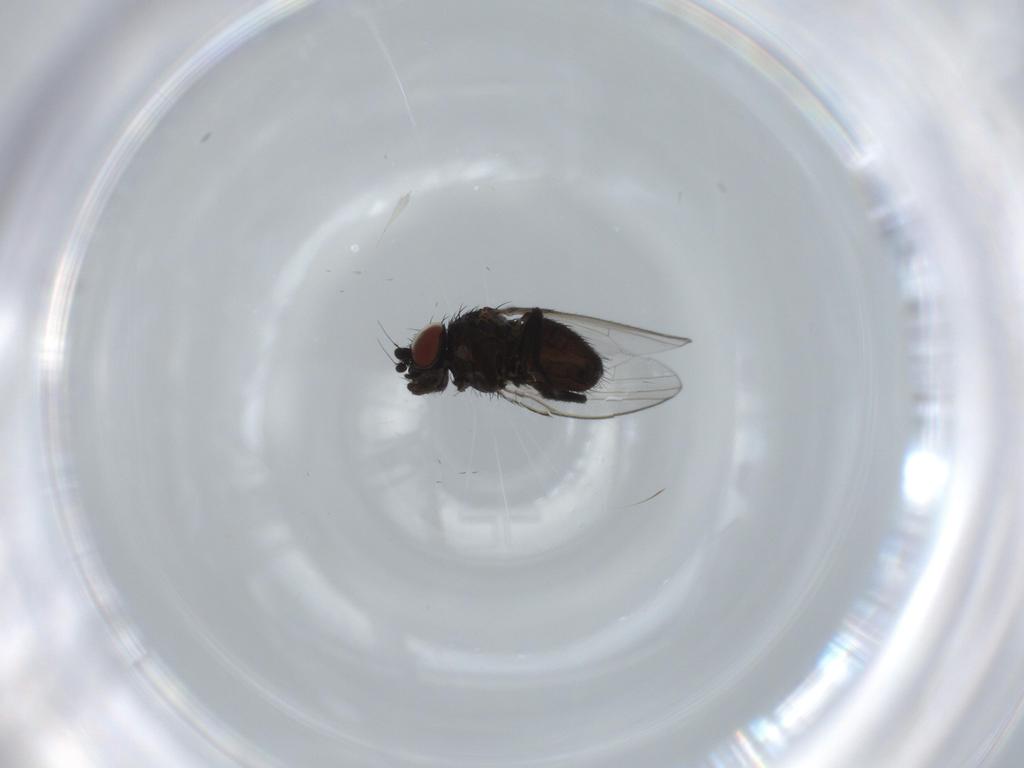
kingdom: Animalia
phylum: Arthropoda
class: Insecta
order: Diptera
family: Milichiidae
